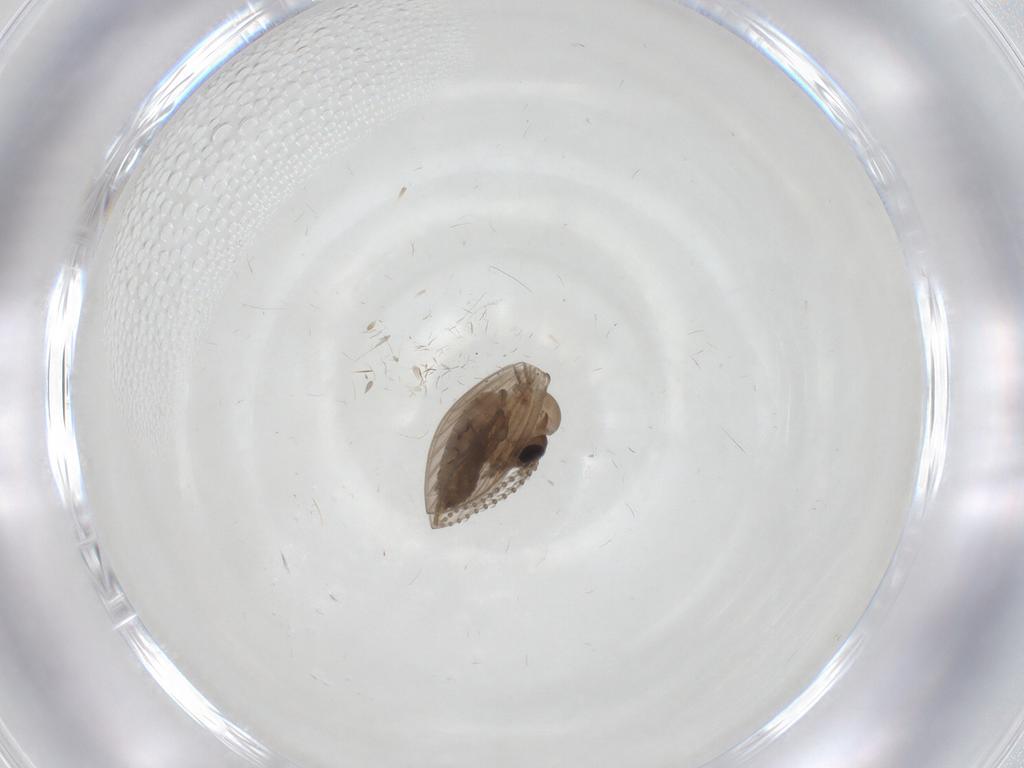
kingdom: Animalia
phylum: Arthropoda
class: Insecta
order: Diptera
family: Psychodidae
